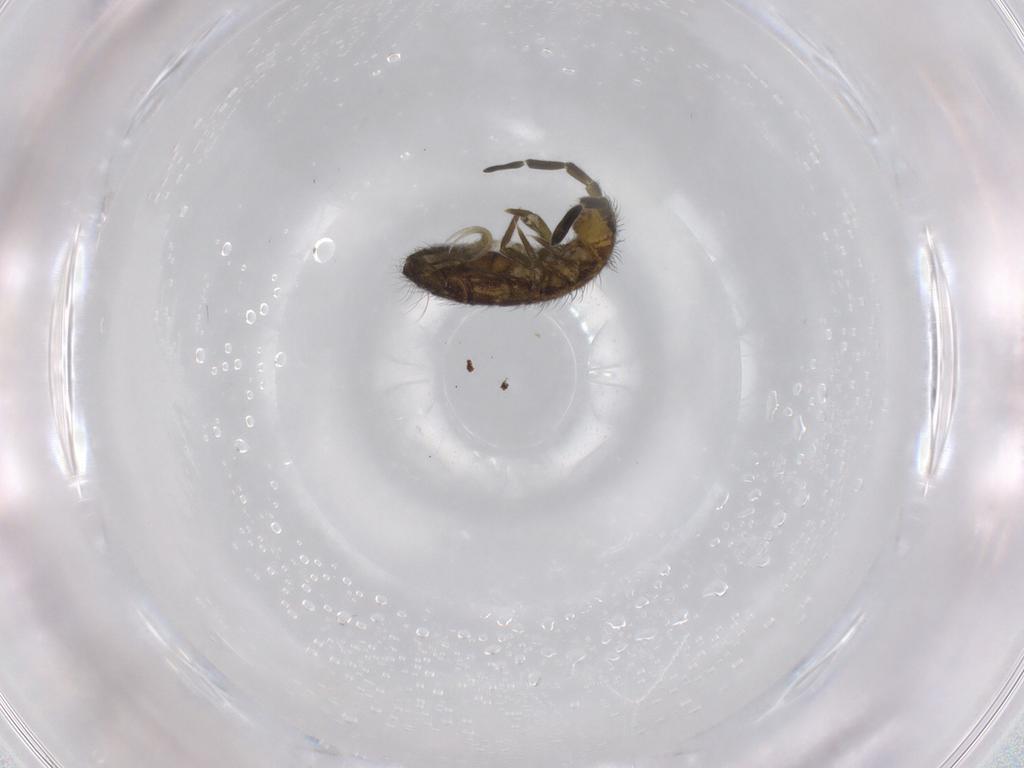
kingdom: Animalia
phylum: Arthropoda
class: Collembola
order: Entomobryomorpha
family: Isotomidae
